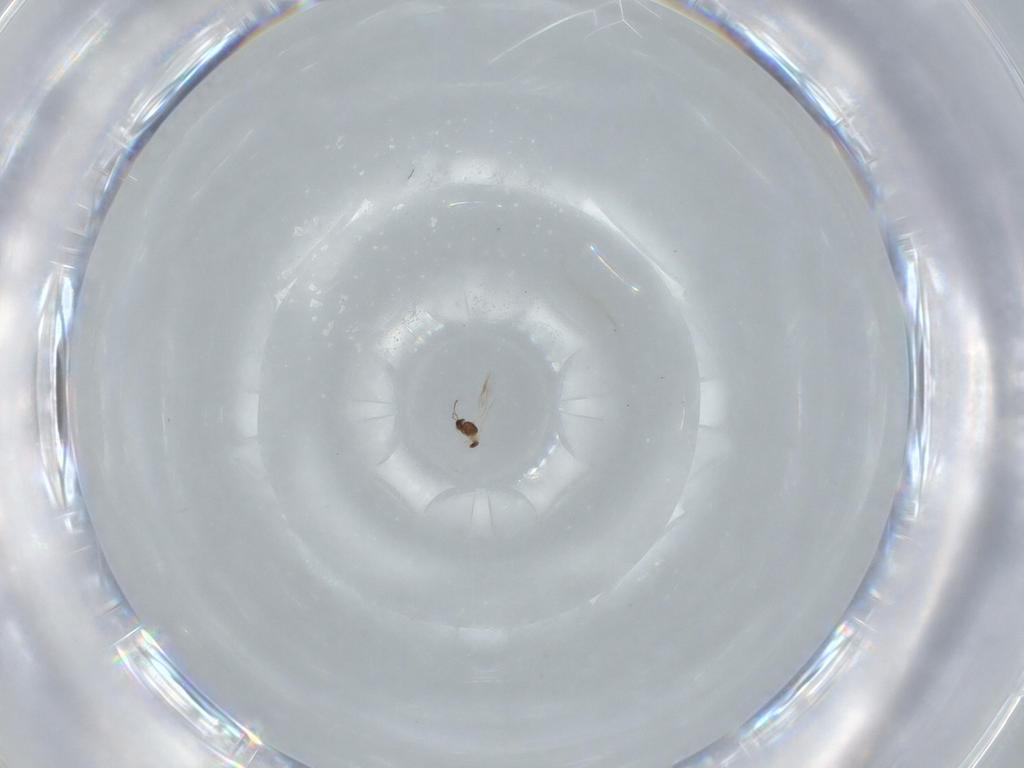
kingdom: Animalia
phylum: Arthropoda
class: Insecta
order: Hymenoptera
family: Mymarommatidae
